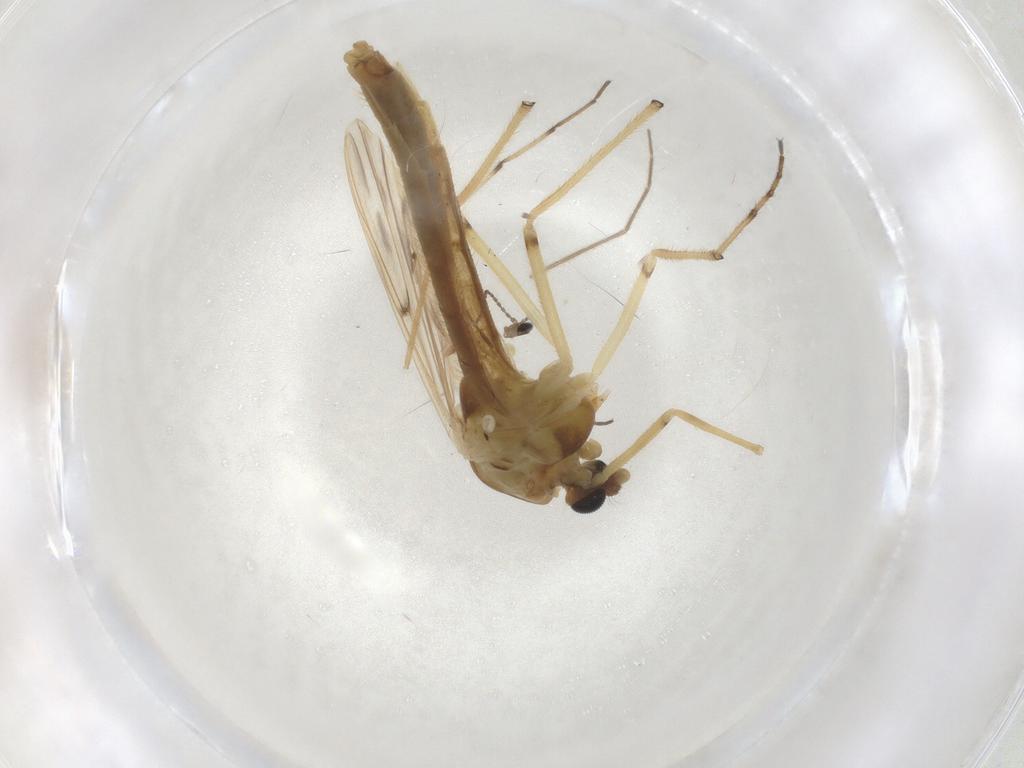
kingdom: Animalia
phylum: Arthropoda
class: Insecta
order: Diptera
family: Chironomidae
